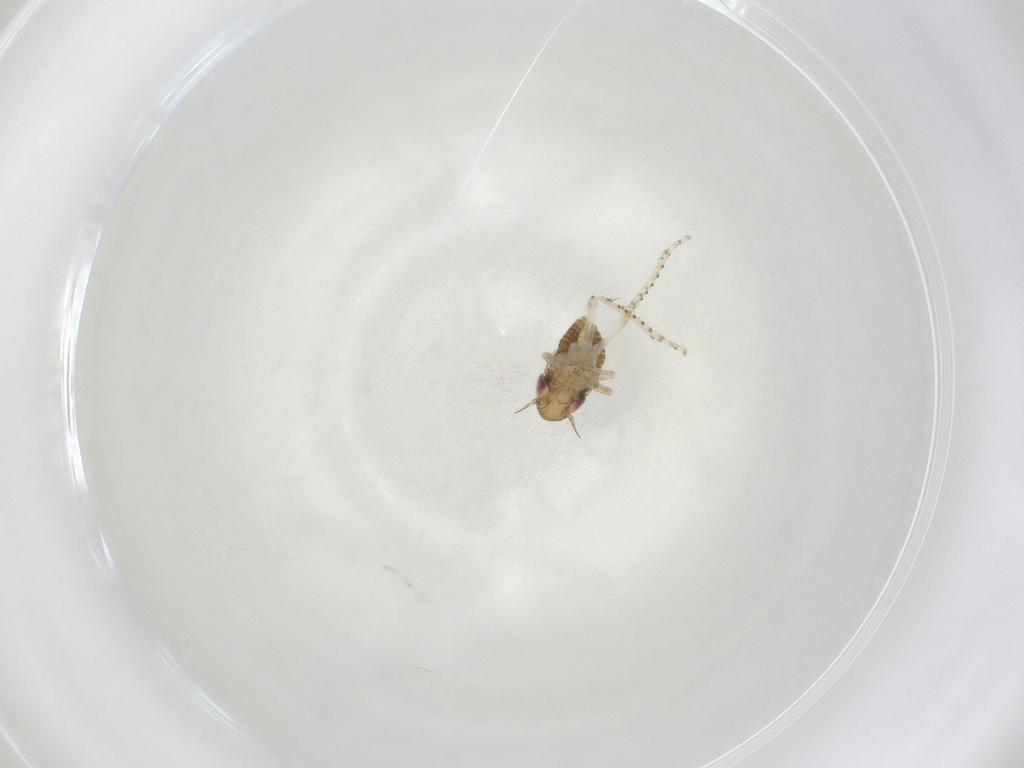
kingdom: Animalia
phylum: Arthropoda
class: Insecta
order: Hemiptera
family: Cicadellidae
